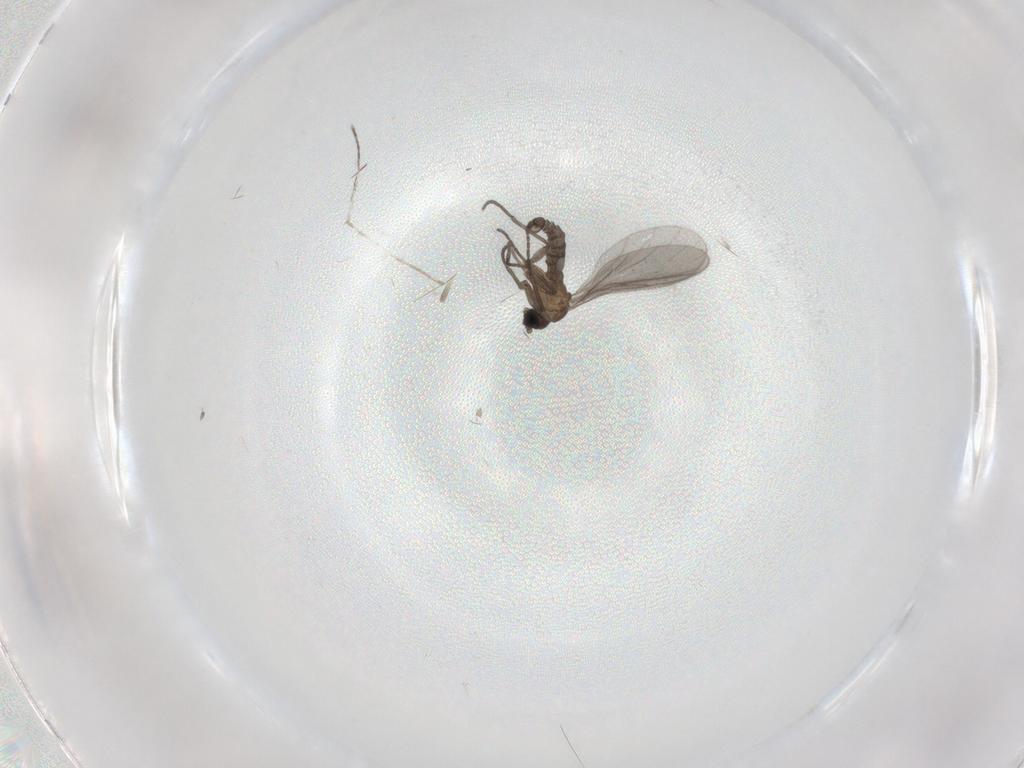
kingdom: Animalia
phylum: Arthropoda
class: Insecta
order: Diptera
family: Sciaridae
